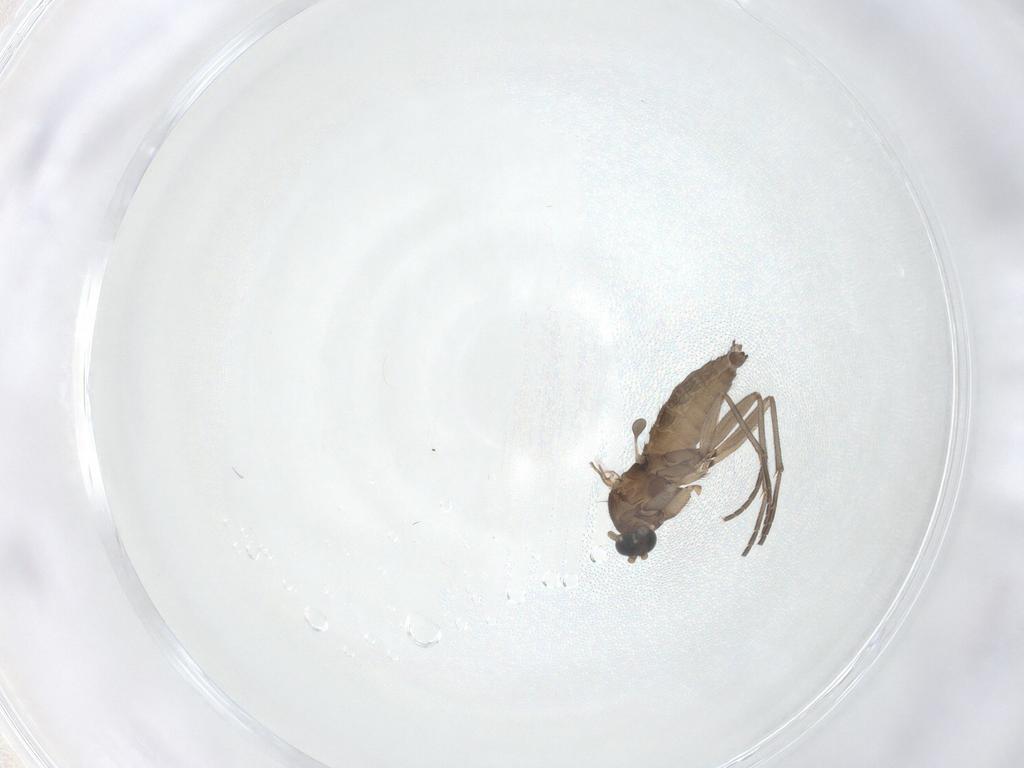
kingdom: Animalia
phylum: Arthropoda
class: Insecta
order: Diptera
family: Sciaridae
